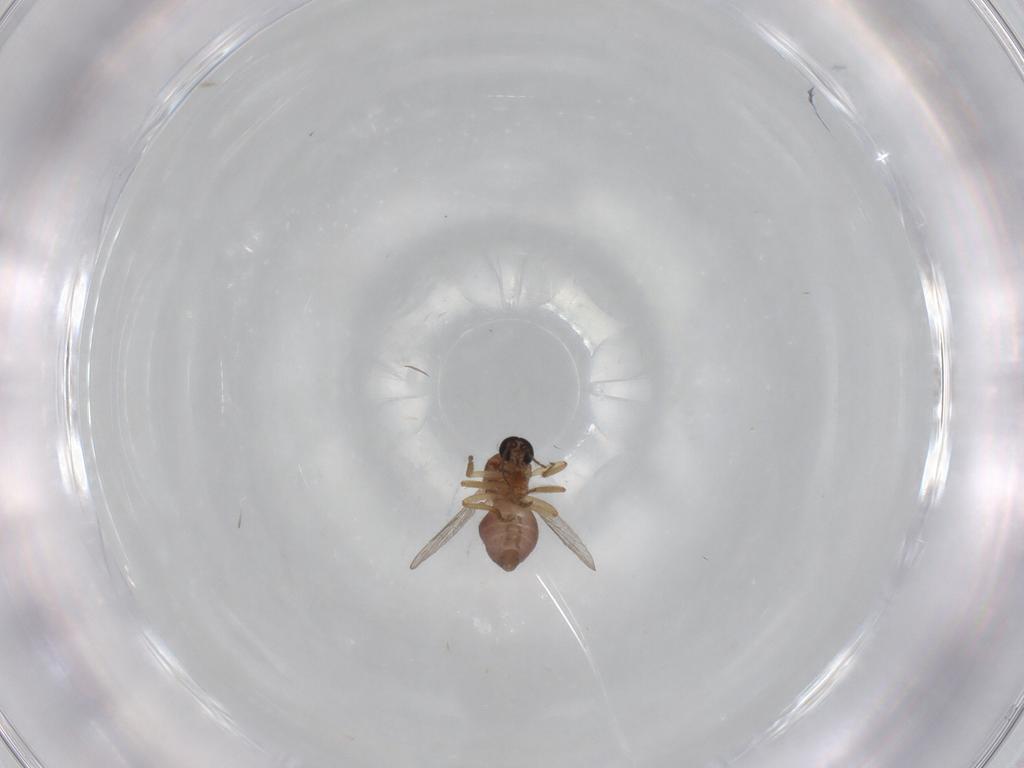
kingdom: Animalia
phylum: Arthropoda
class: Insecta
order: Diptera
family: Ceratopogonidae
